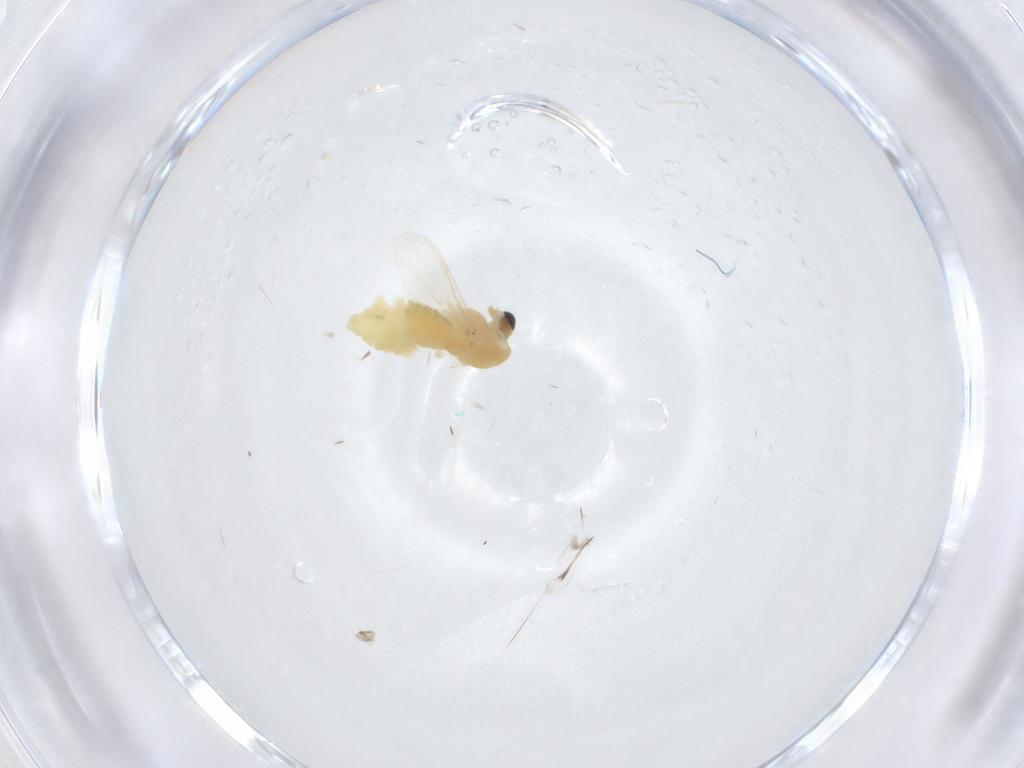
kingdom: Animalia
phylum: Arthropoda
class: Insecta
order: Diptera
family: Chironomidae
